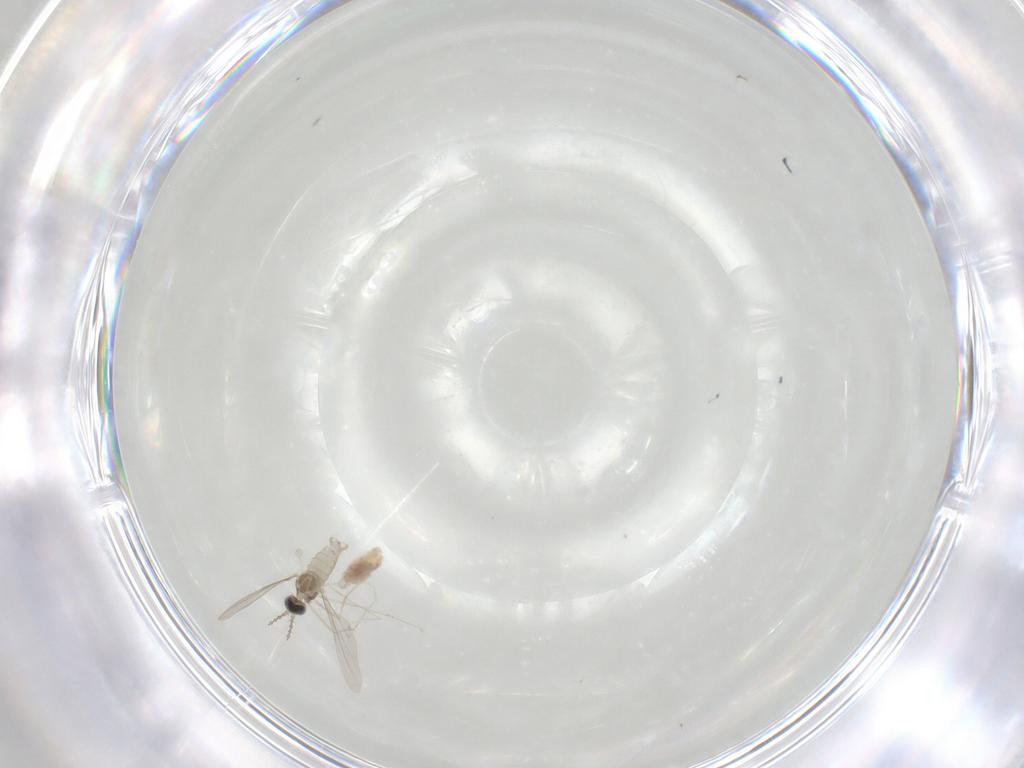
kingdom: Animalia
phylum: Arthropoda
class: Insecta
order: Diptera
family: Cecidomyiidae
